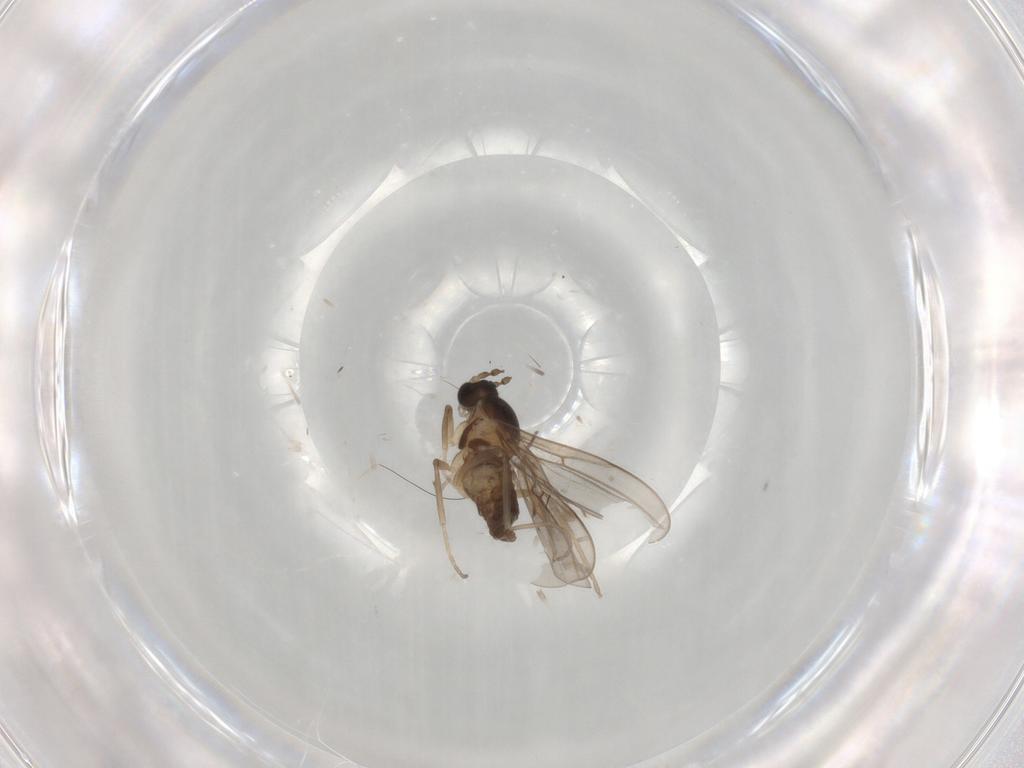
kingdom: Animalia
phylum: Arthropoda
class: Insecta
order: Diptera
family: Cecidomyiidae
